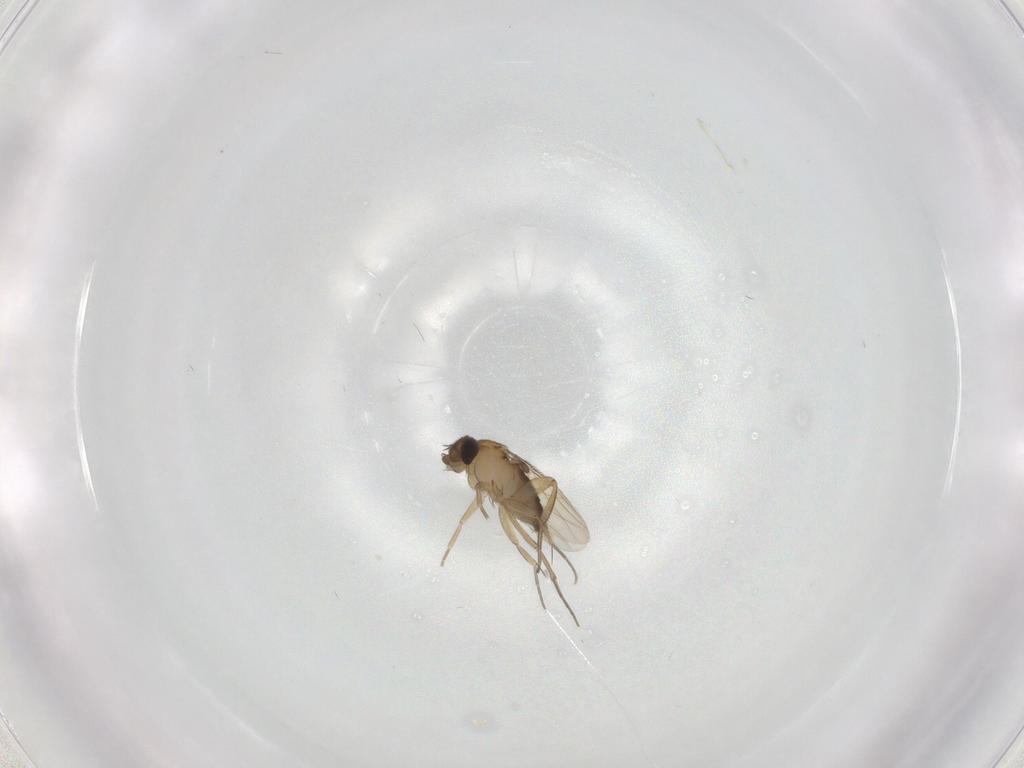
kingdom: Animalia
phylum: Arthropoda
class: Insecta
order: Diptera
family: Phoridae
